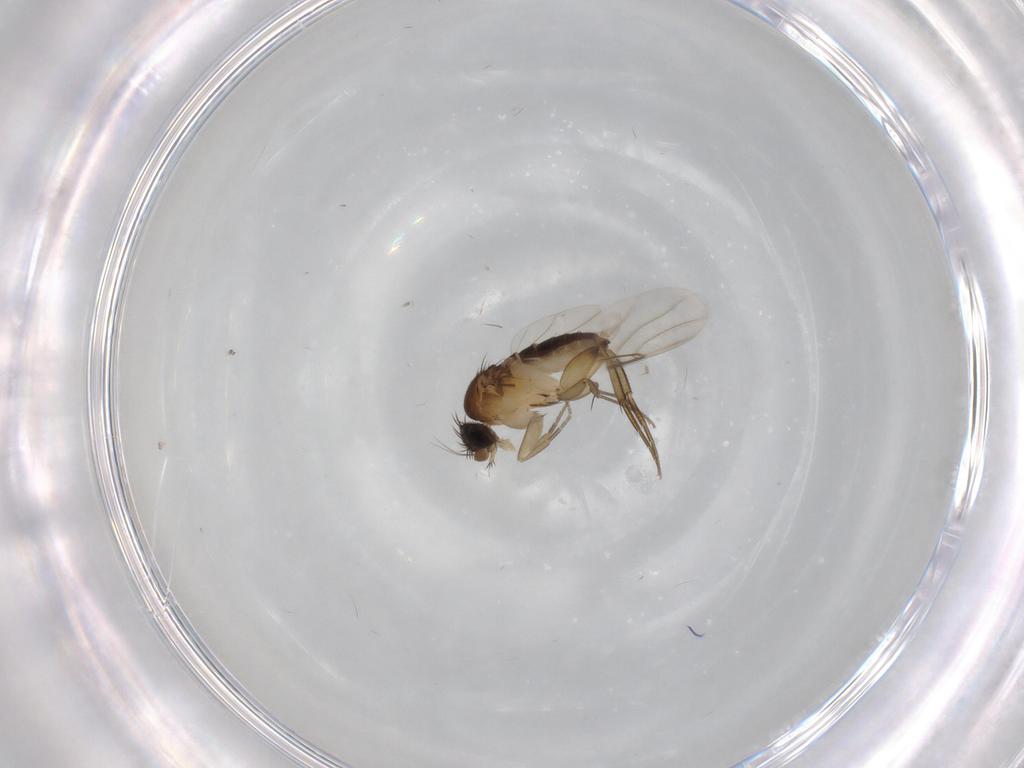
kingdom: Animalia
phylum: Arthropoda
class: Insecta
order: Diptera
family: Phoridae
